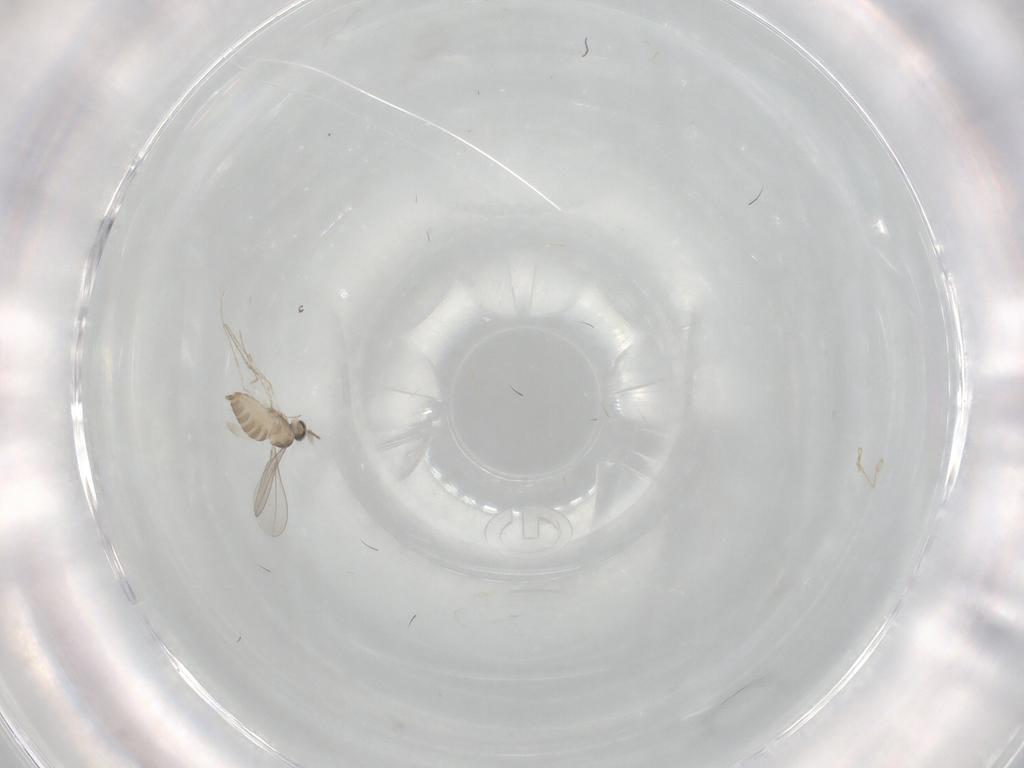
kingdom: Animalia
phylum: Arthropoda
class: Insecta
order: Diptera
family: Cecidomyiidae
